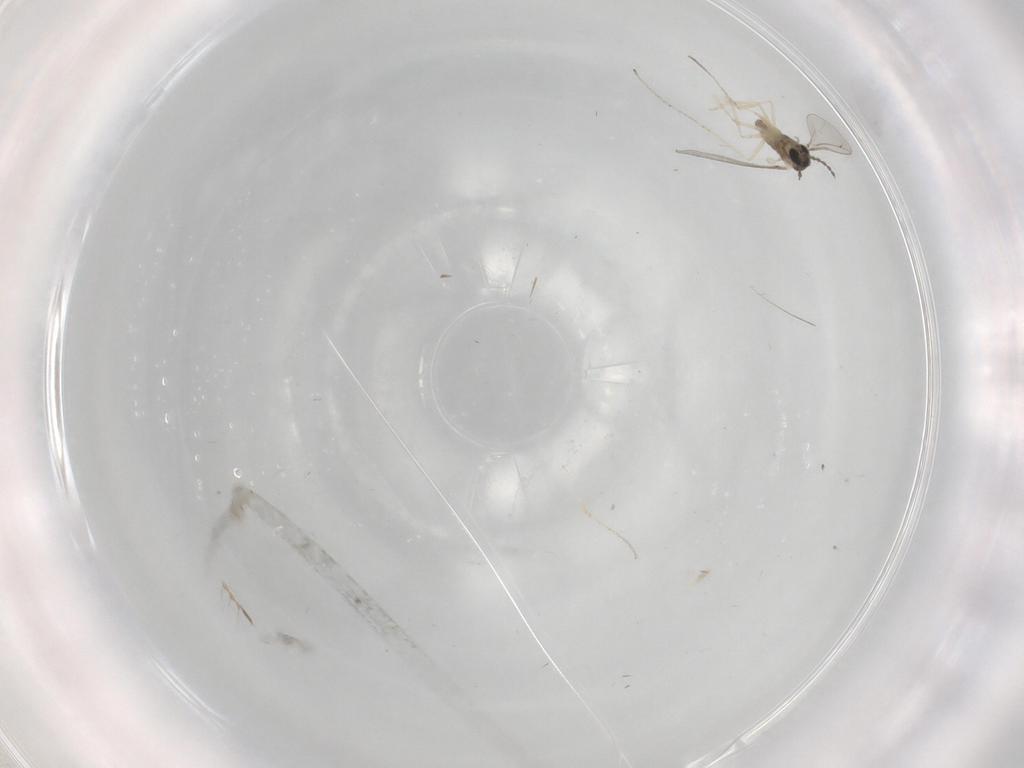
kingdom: Animalia
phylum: Arthropoda
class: Insecta
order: Diptera
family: Cecidomyiidae
